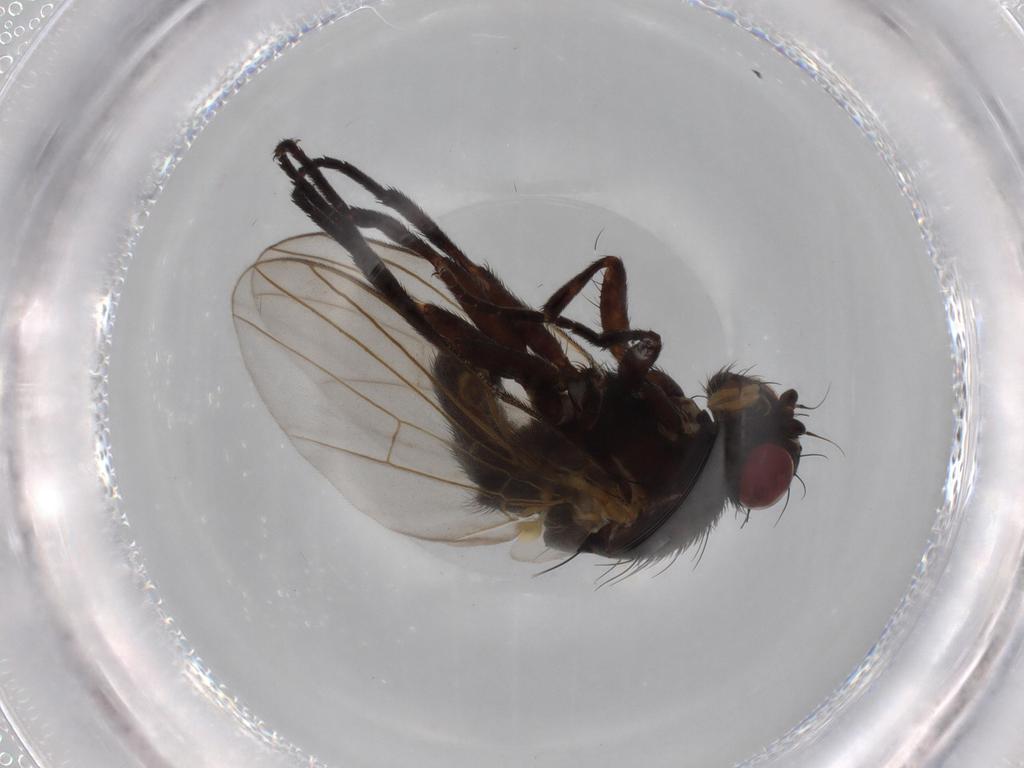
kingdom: Animalia
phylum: Arthropoda
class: Insecta
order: Diptera
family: Agromyzidae
